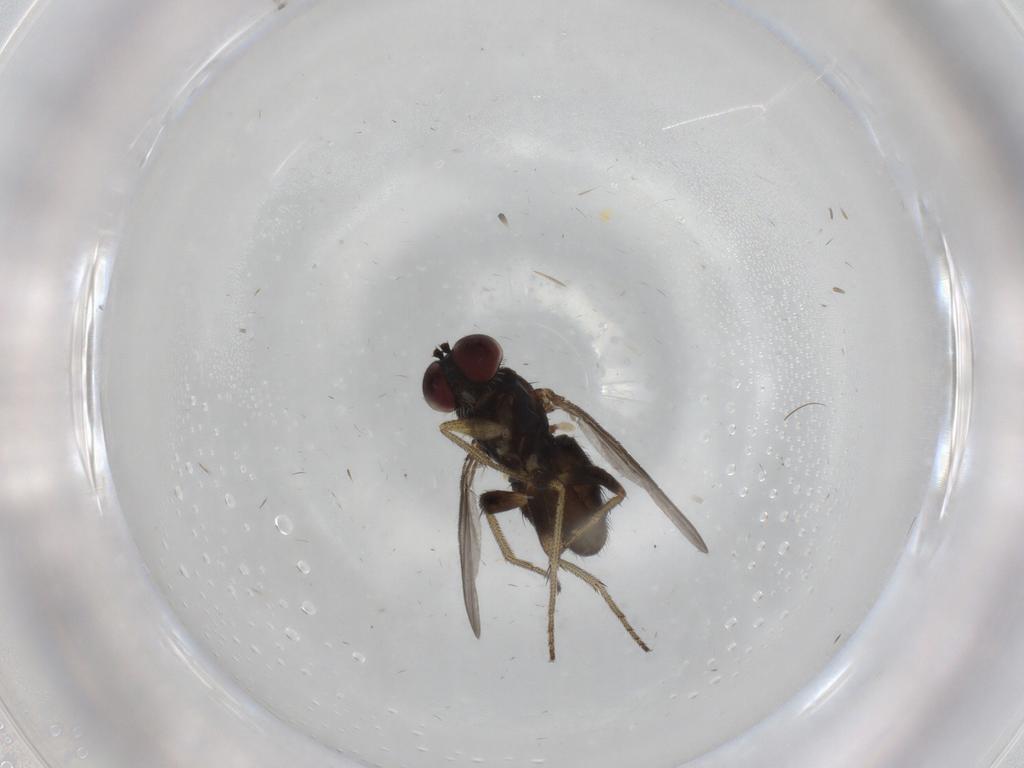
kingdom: Animalia
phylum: Arthropoda
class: Insecta
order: Diptera
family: Dolichopodidae
